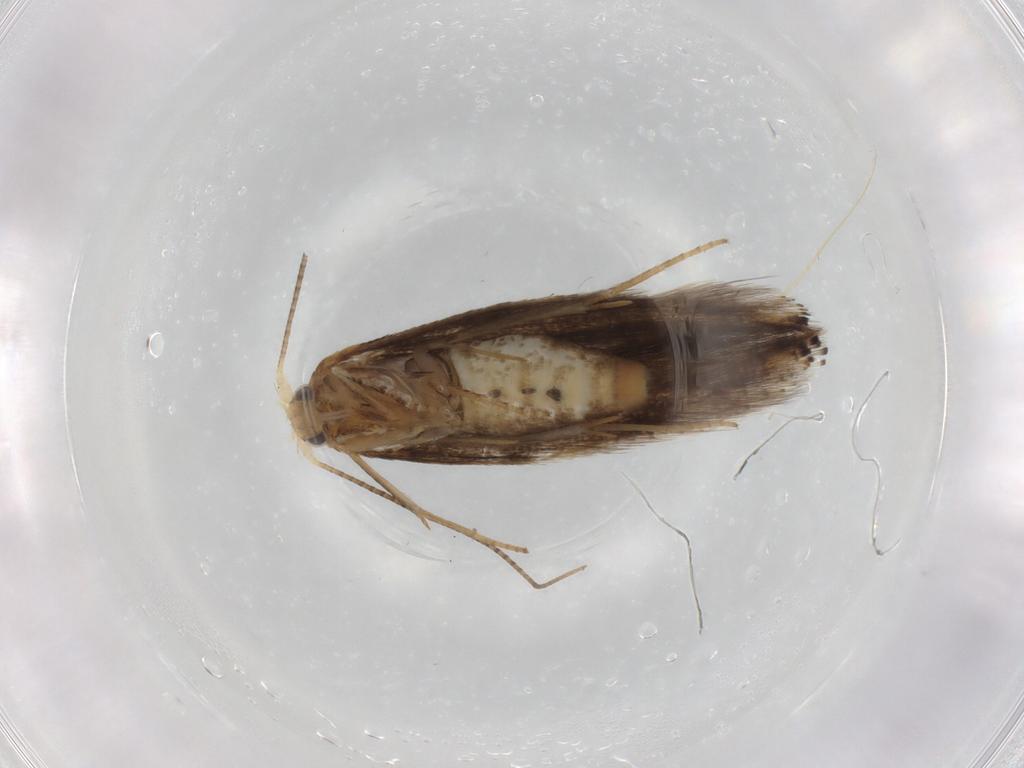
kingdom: Animalia
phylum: Arthropoda
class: Insecta
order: Lepidoptera
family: Bucculatricidae
